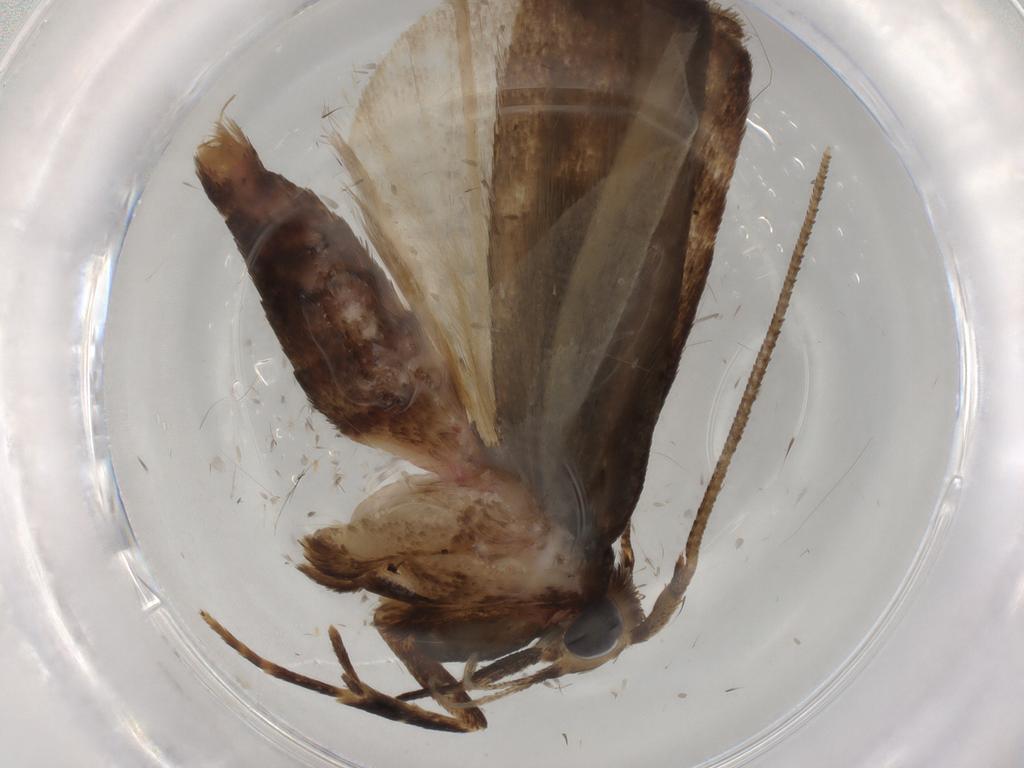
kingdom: Animalia
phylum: Arthropoda
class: Insecta
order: Lepidoptera
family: Autostichidae
